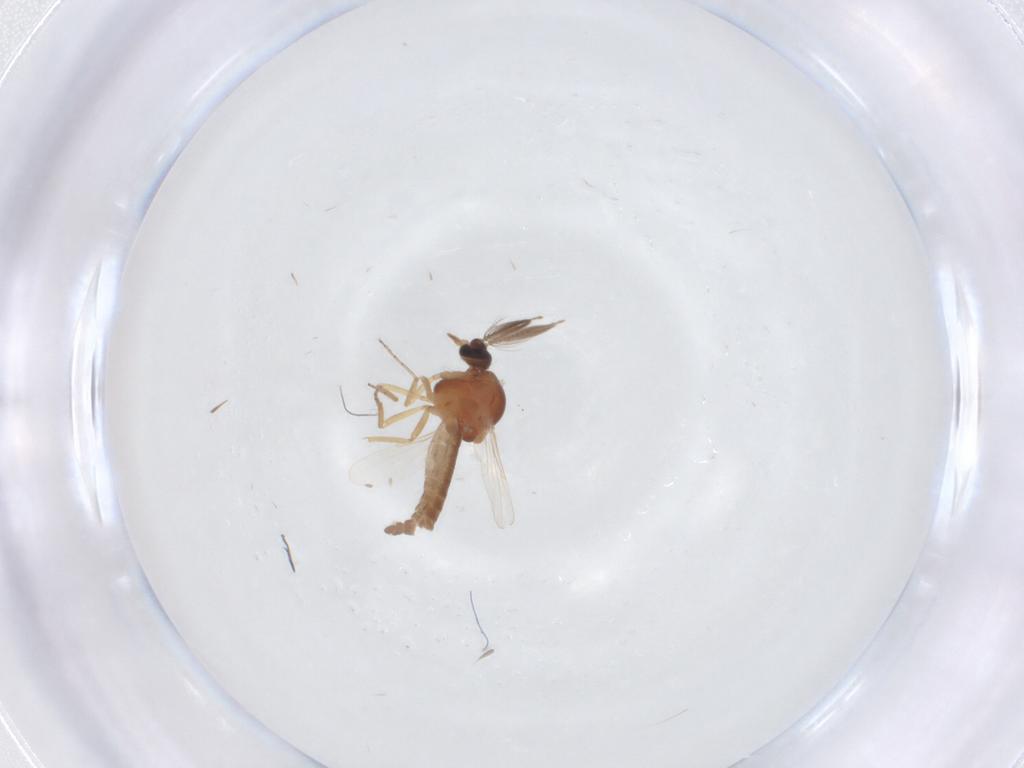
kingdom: Animalia
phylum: Arthropoda
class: Insecta
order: Diptera
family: Ceratopogonidae
